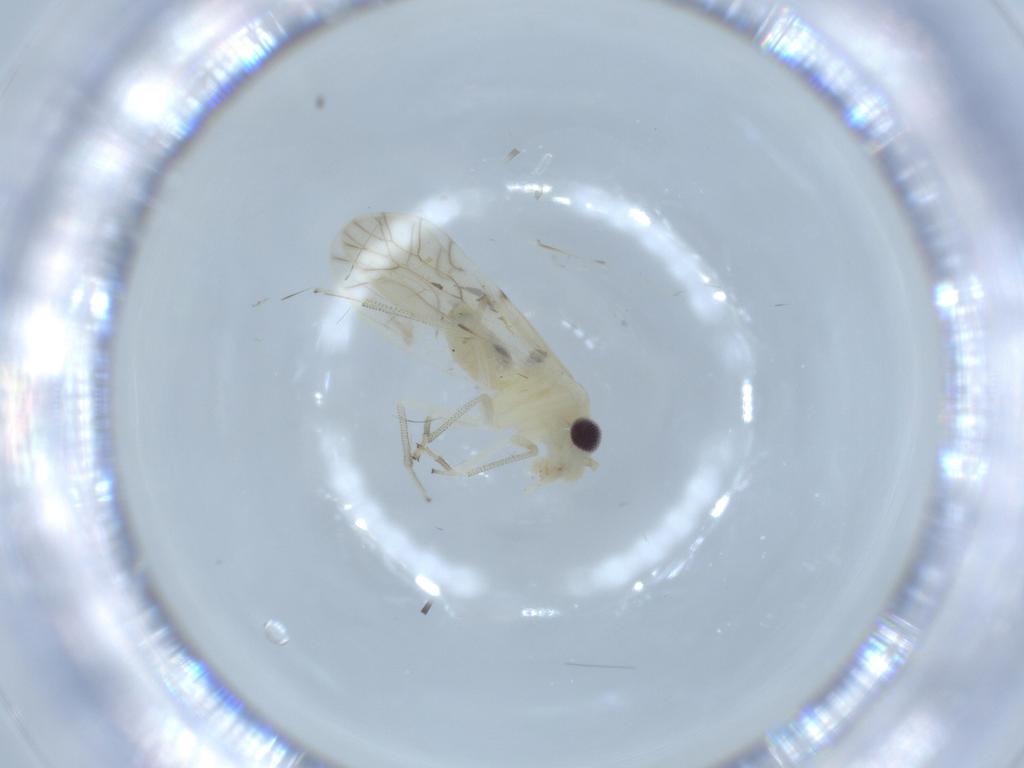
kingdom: Animalia
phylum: Arthropoda
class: Insecta
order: Psocodea
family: Caeciliusidae
